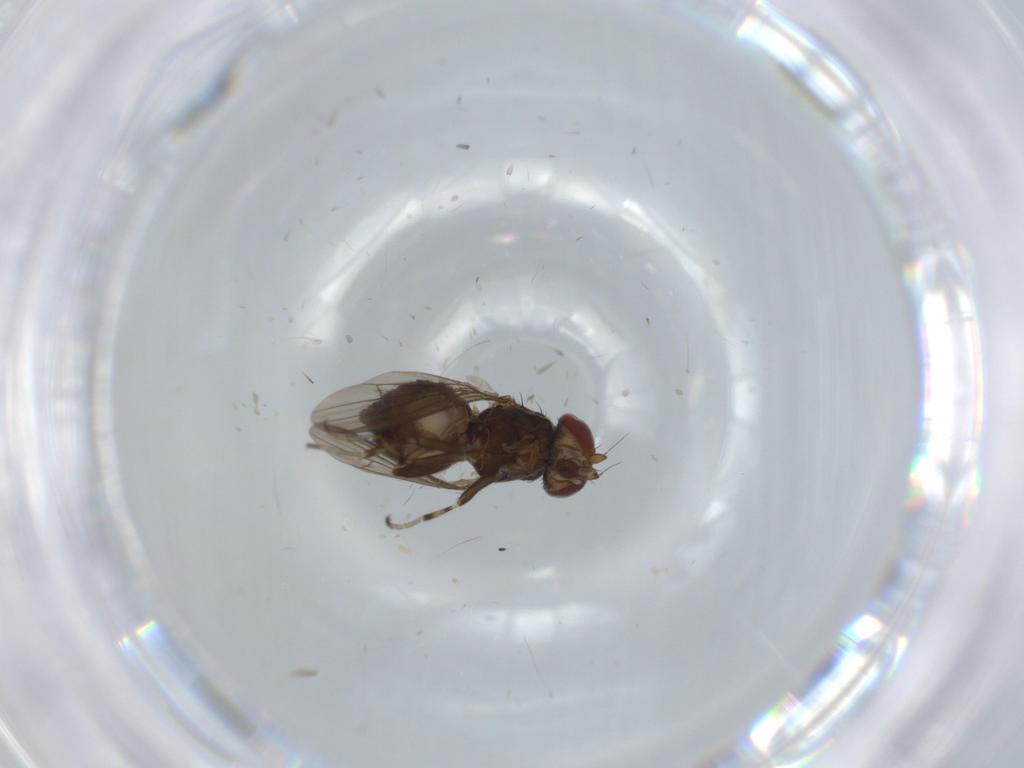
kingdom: Animalia
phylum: Arthropoda
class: Insecta
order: Diptera
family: Heleomyzidae
